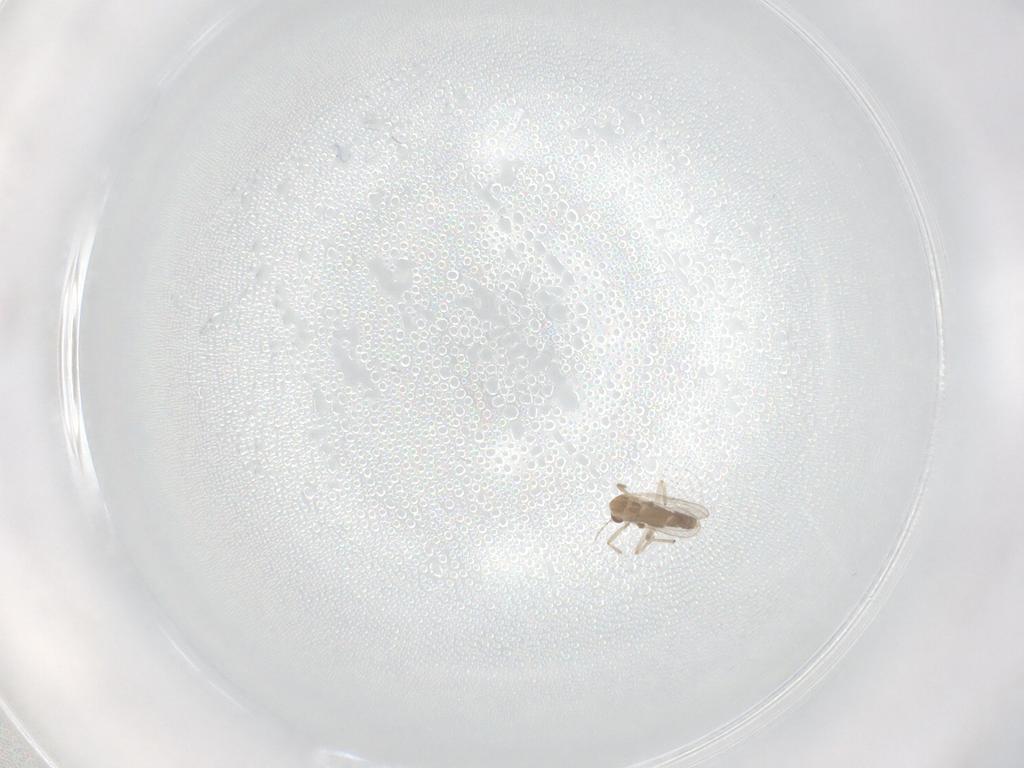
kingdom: Animalia
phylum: Arthropoda
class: Insecta
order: Diptera
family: Chironomidae
